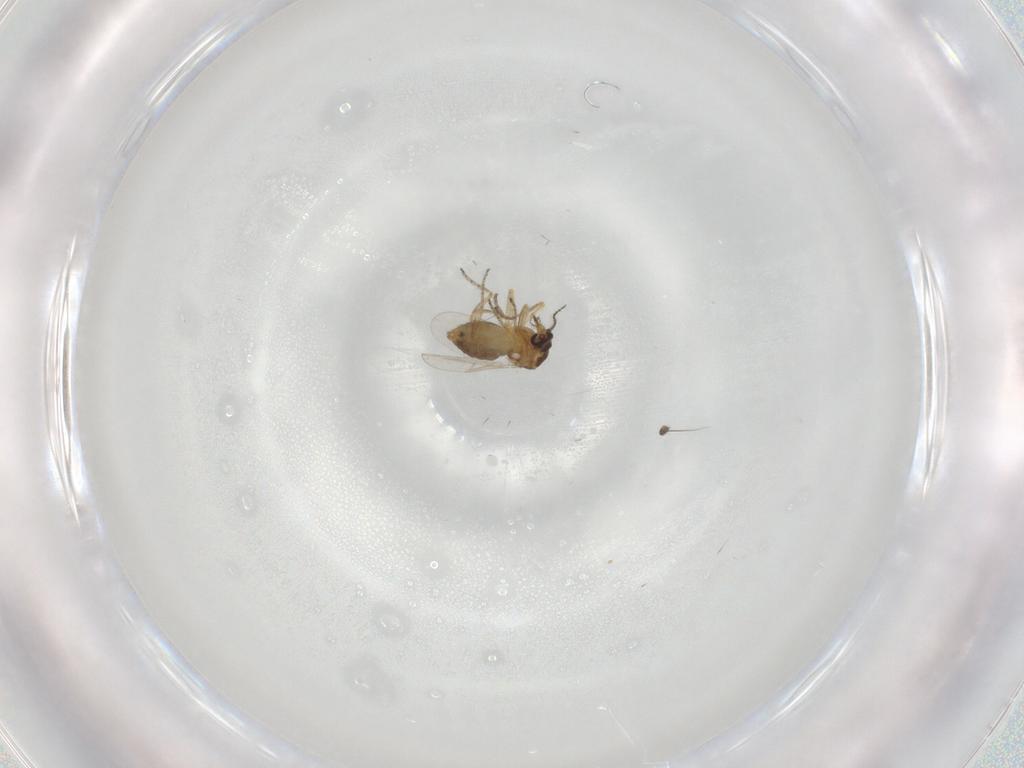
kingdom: Animalia
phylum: Arthropoda
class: Insecta
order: Diptera
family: Ceratopogonidae
